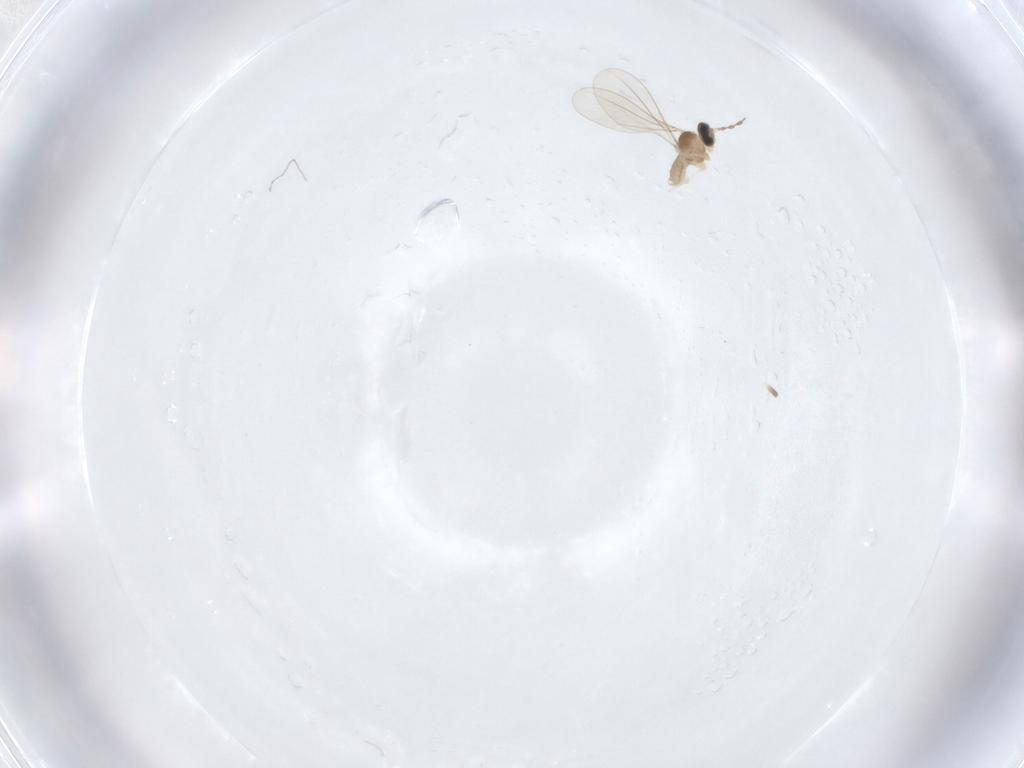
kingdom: Animalia
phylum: Arthropoda
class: Insecta
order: Diptera
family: Cecidomyiidae
